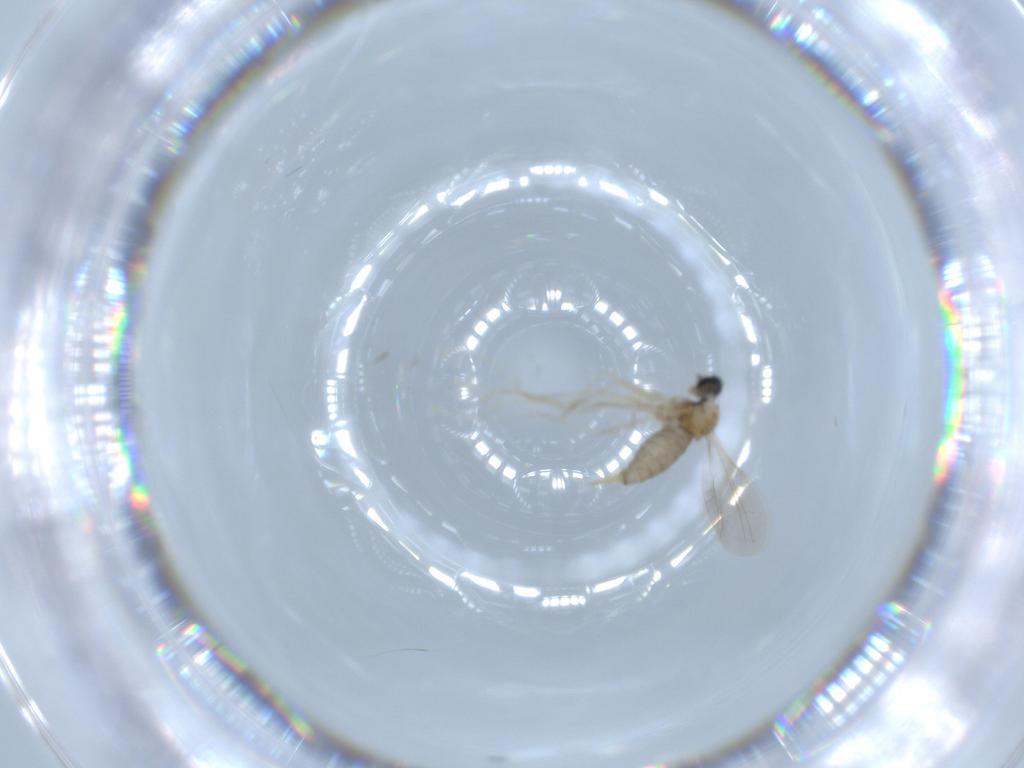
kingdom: Animalia
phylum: Arthropoda
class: Insecta
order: Diptera
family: Cecidomyiidae
